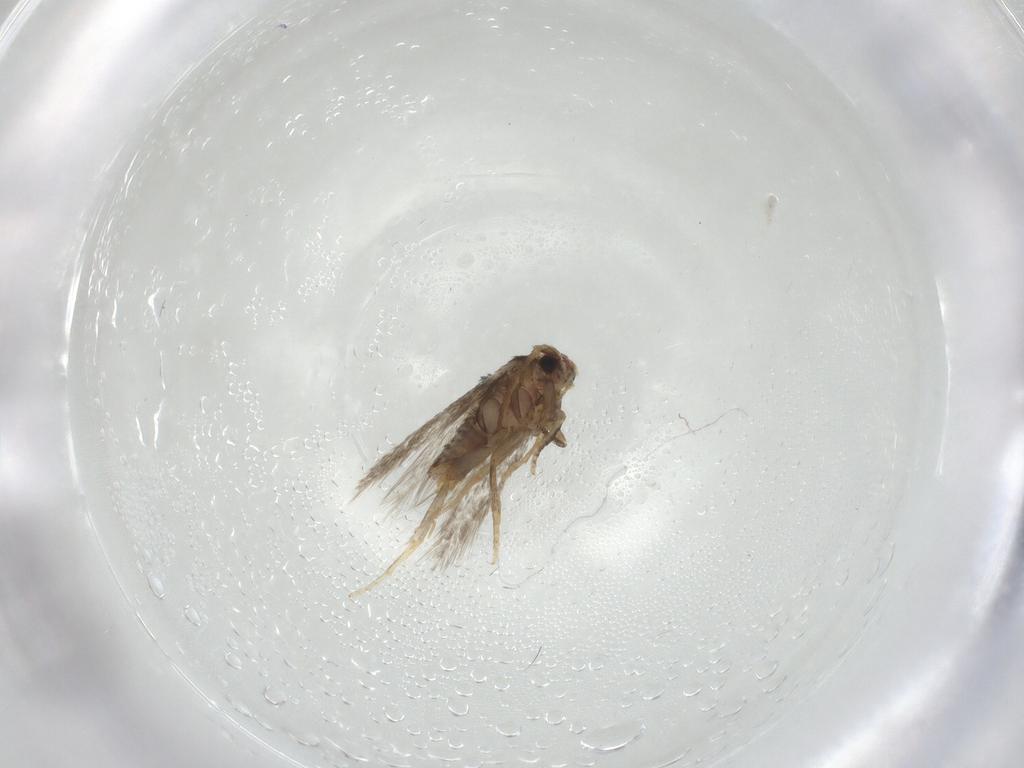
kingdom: Animalia
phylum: Arthropoda
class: Insecta
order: Lepidoptera
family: Nepticulidae
